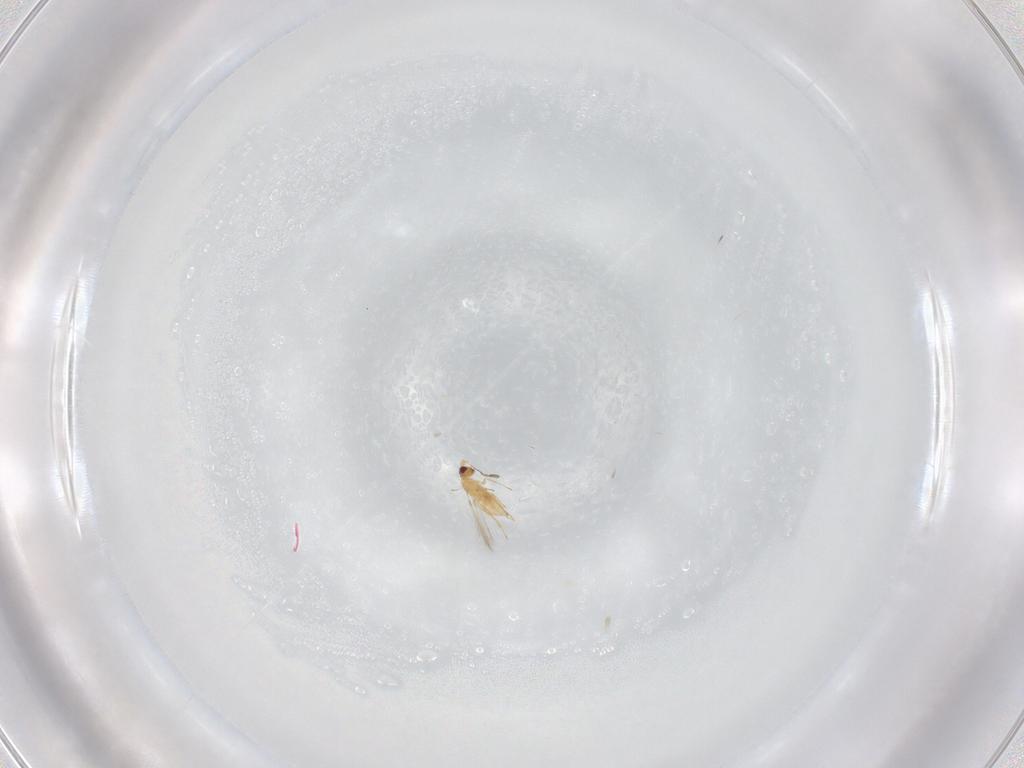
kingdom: Animalia
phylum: Arthropoda
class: Insecta
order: Hymenoptera
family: Mymaridae
